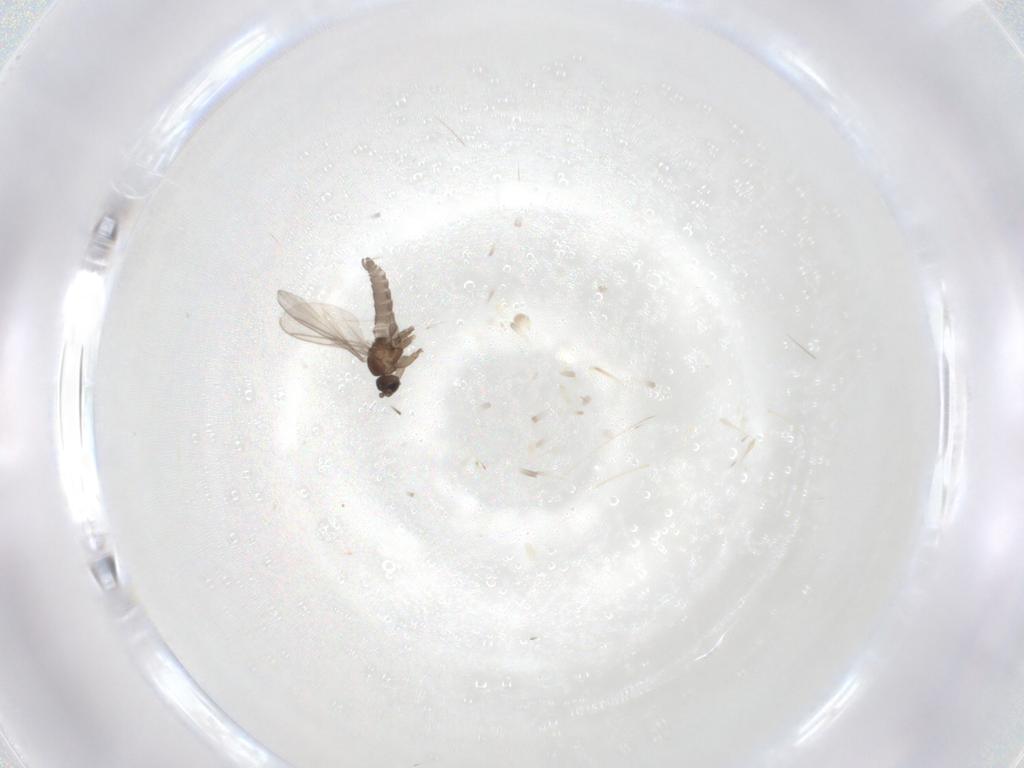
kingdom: Animalia
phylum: Arthropoda
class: Insecta
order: Diptera
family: Sciaridae
